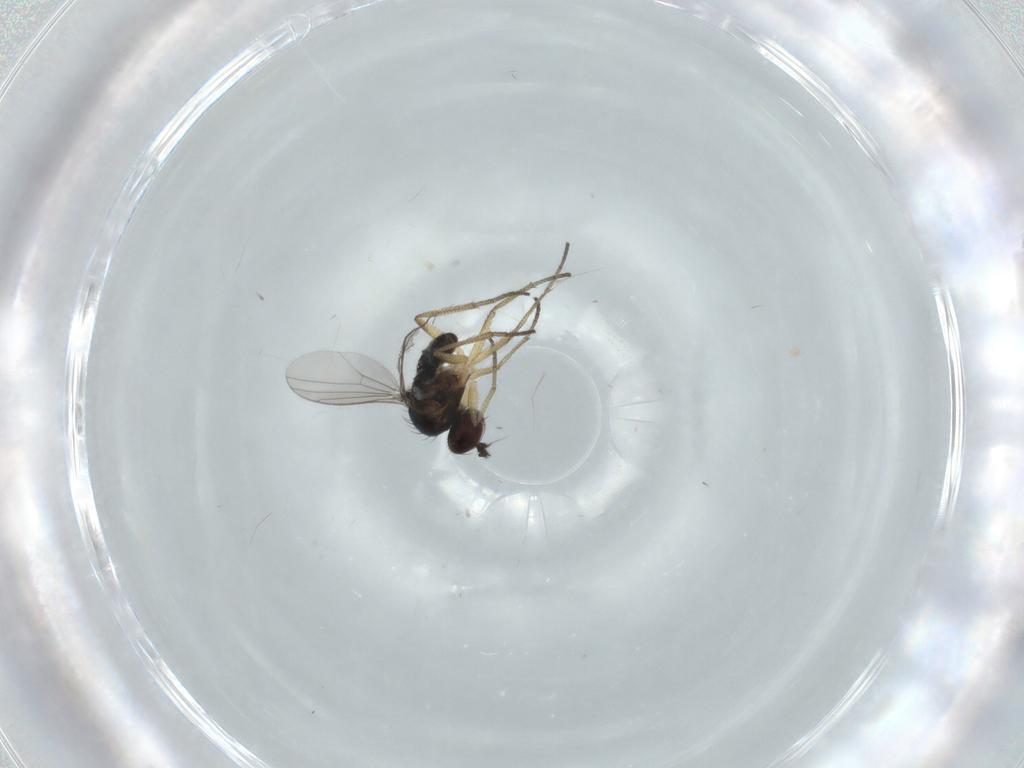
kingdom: Animalia
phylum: Arthropoda
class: Insecta
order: Diptera
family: Dolichopodidae
